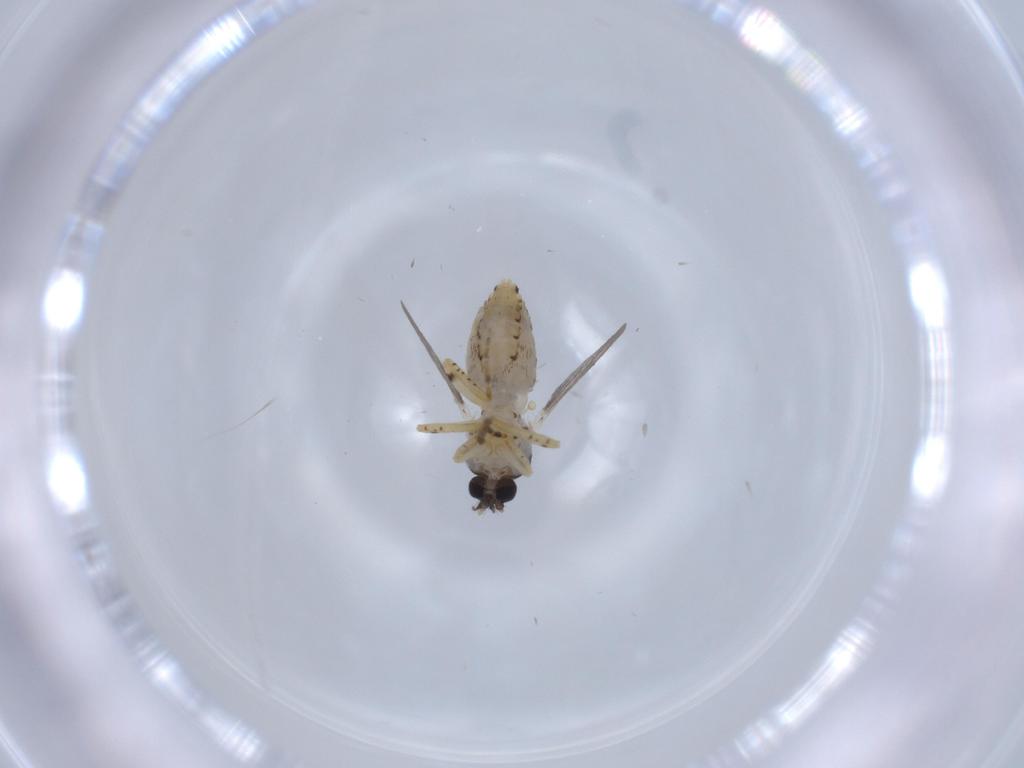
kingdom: Animalia
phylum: Arthropoda
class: Insecta
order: Diptera
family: Ceratopogonidae
